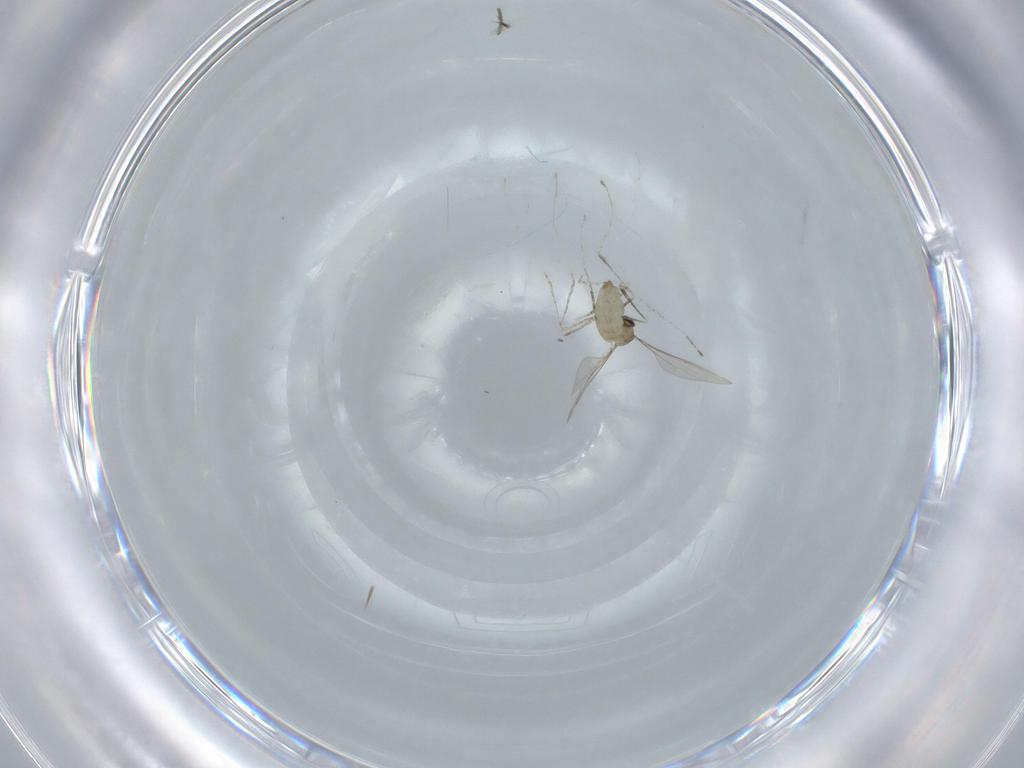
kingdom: Animalia
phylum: Arthropoda
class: Insecta
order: Diptera
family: Cecidomyiidae
